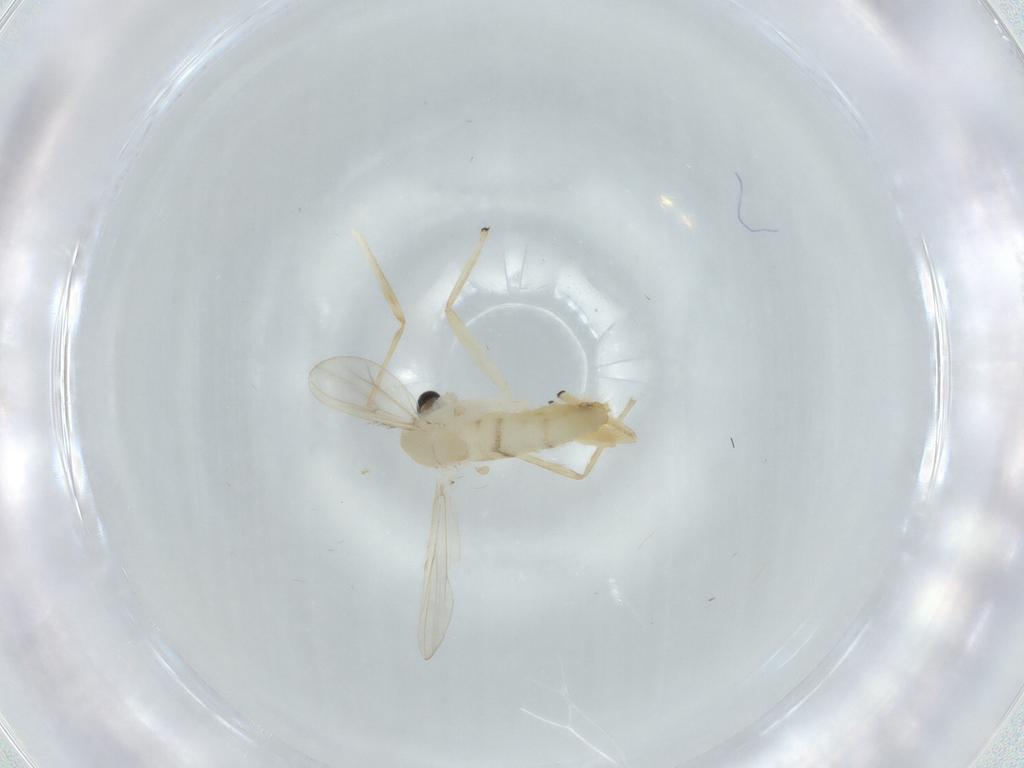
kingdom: Animalia
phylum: Arthropoda
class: Insecta
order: Diptera
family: Chironomidae
